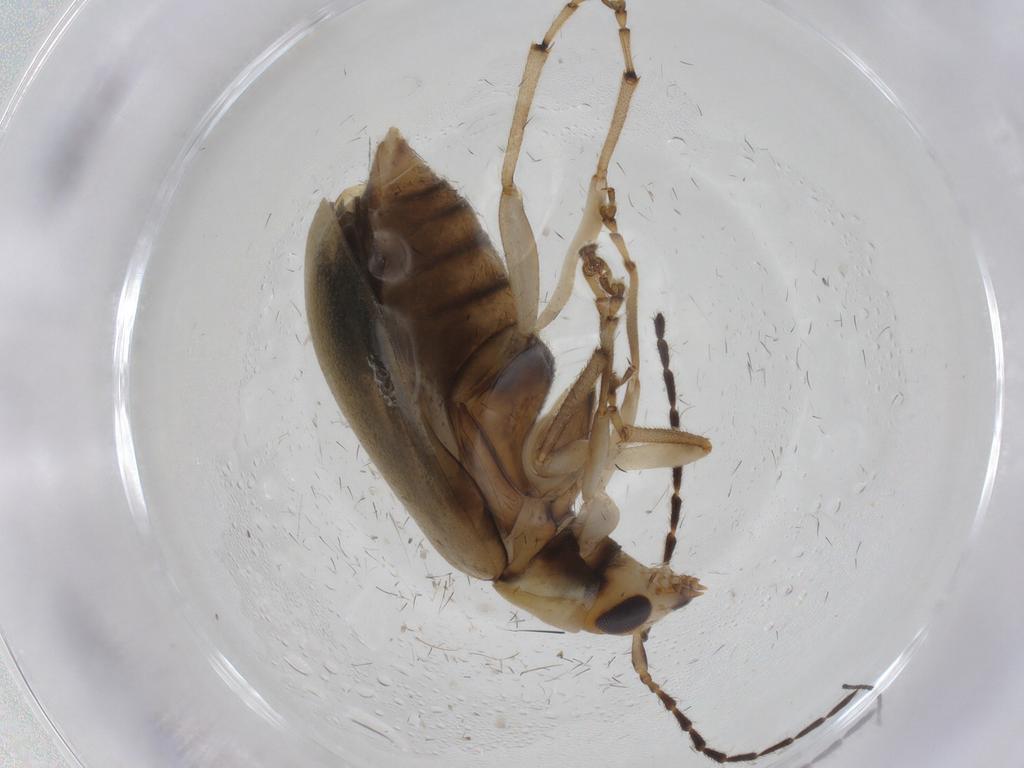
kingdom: Animalia
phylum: Arthropoda
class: Insecta
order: Coleoptera
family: Chrysomelidae
